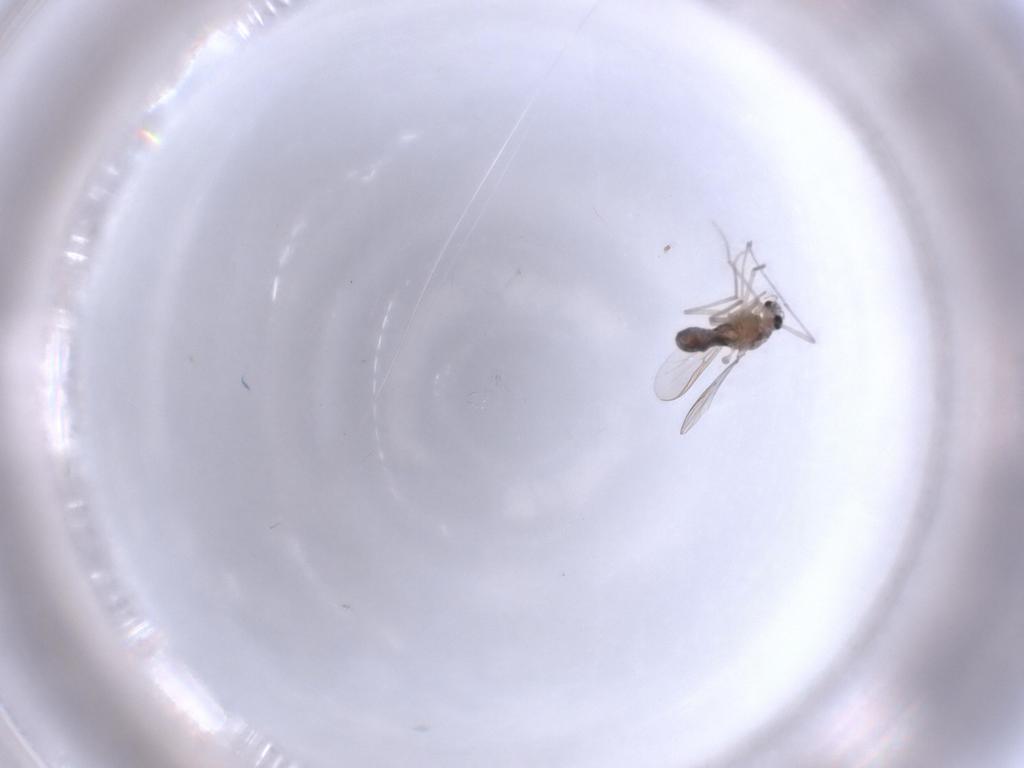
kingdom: Animalia
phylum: Arthropoda
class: Insecta
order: Diptera
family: Chironomidae
